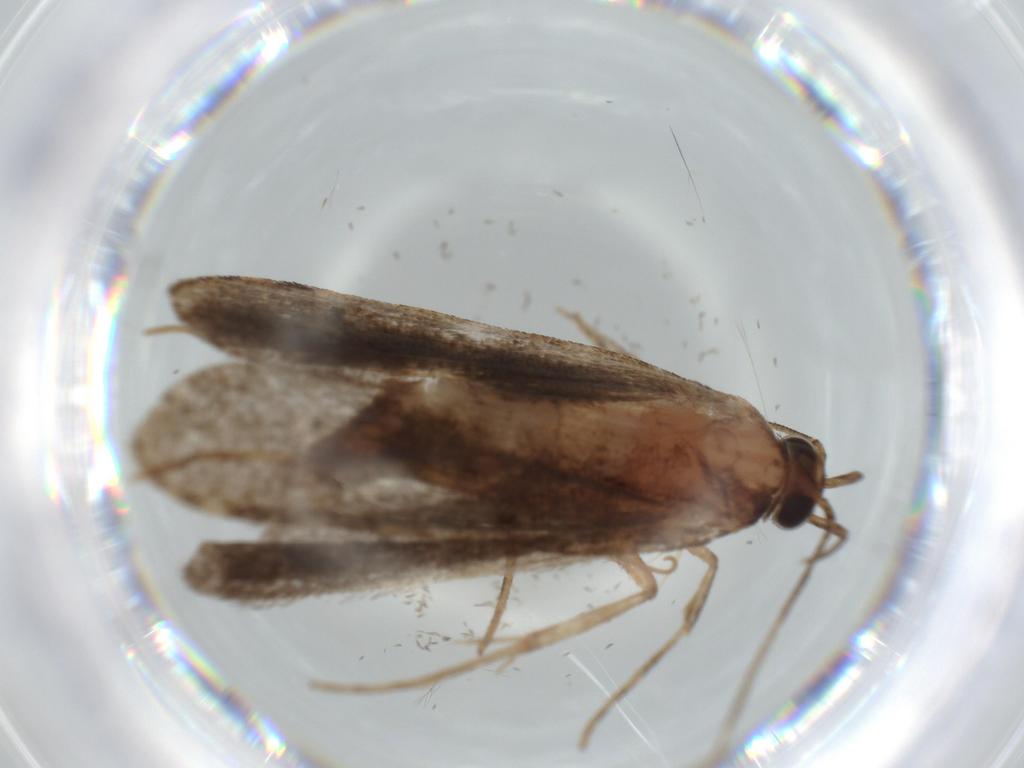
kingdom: Animalia
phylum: Arthropoda
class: Insecta
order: Lepidoptera
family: Autostichidae
